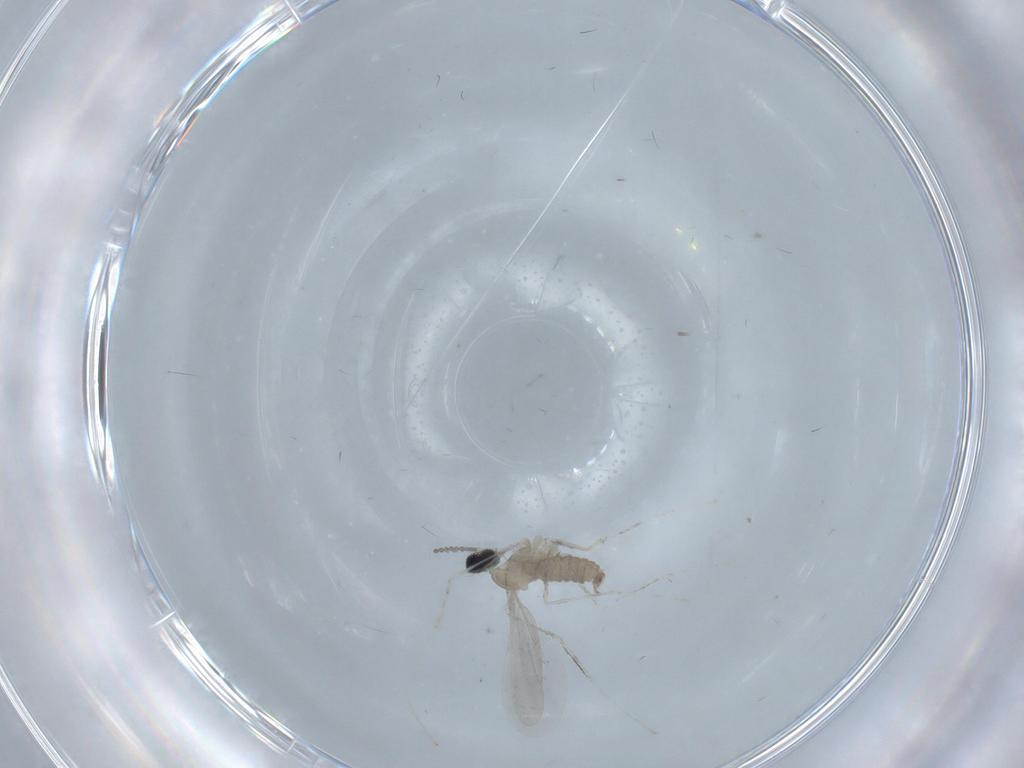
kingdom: Animalia
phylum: Arthropoda
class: Insecta
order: Diptera
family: Cecidomyiidae
